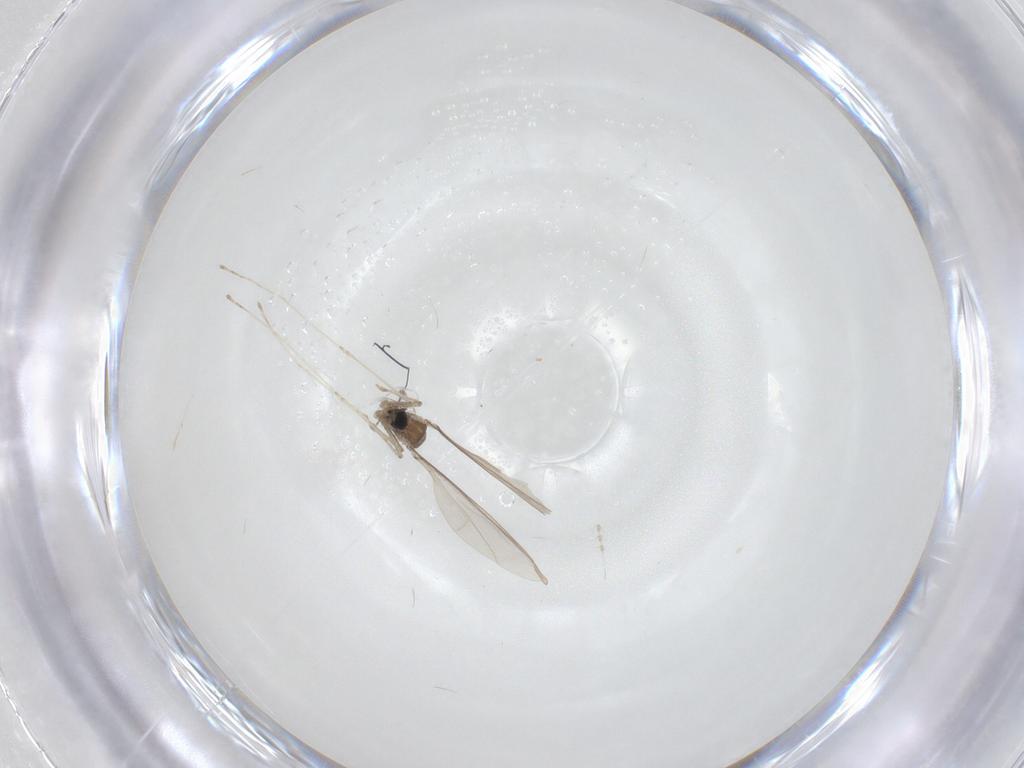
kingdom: Animalia
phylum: Arthropoda
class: Insecta
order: Diptera
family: Cecidomyiidae
